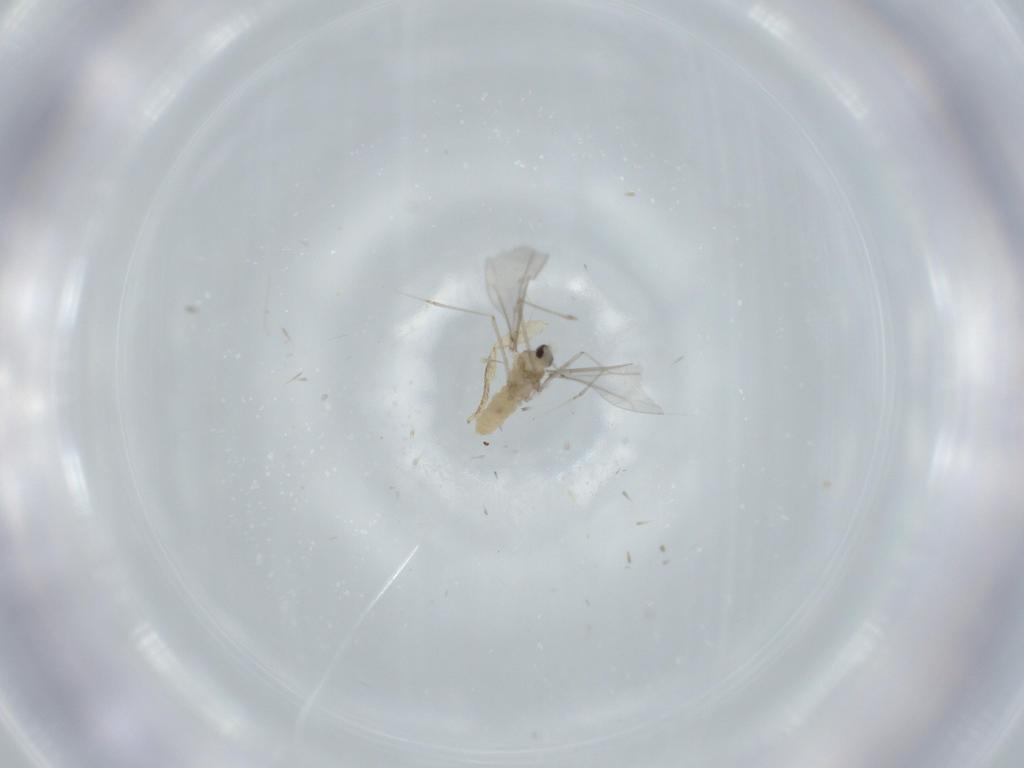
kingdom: Animalia
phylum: Arthropoda
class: Insecta
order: Diptera
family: Cecidomyiidae
